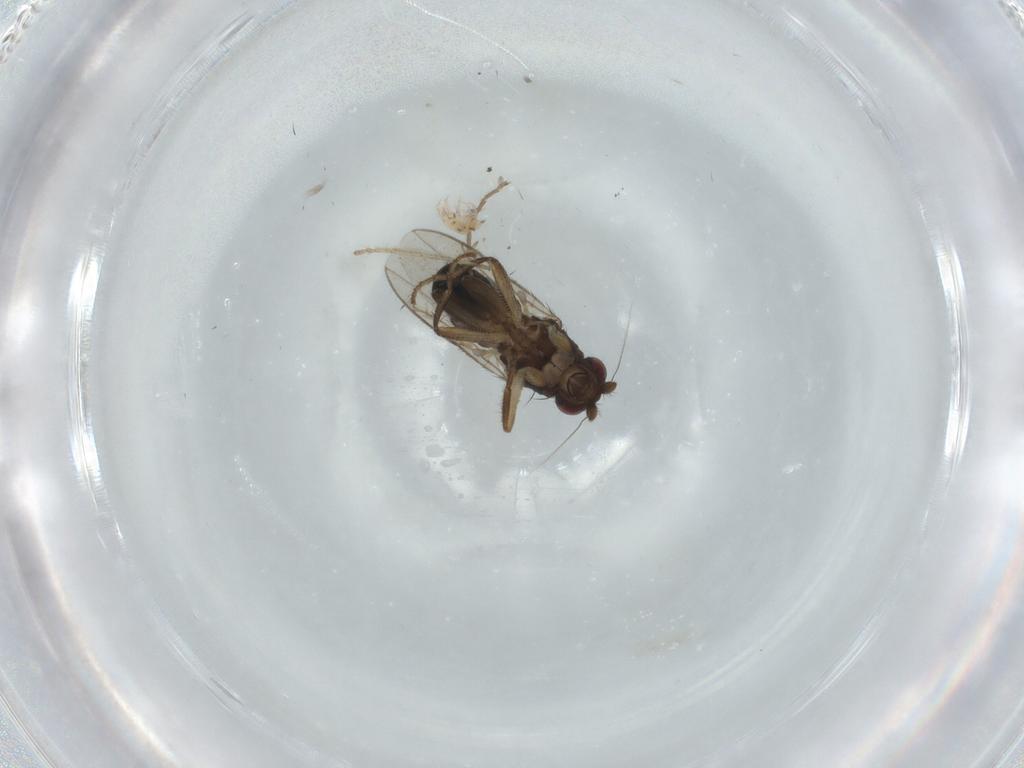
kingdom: Animalia
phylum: Arthropoda
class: Insecta
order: Diptera
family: Sphaeroceridae
